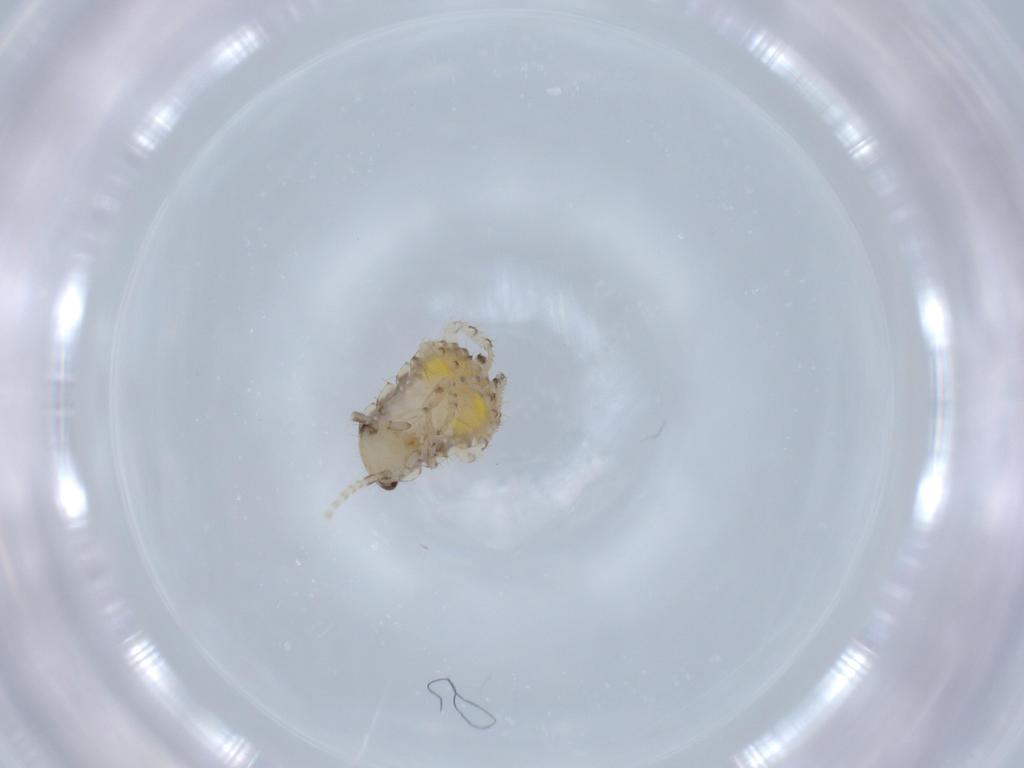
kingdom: Animalia
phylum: Arthropoda
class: Insecta
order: Blattodea
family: Ectobiidae
